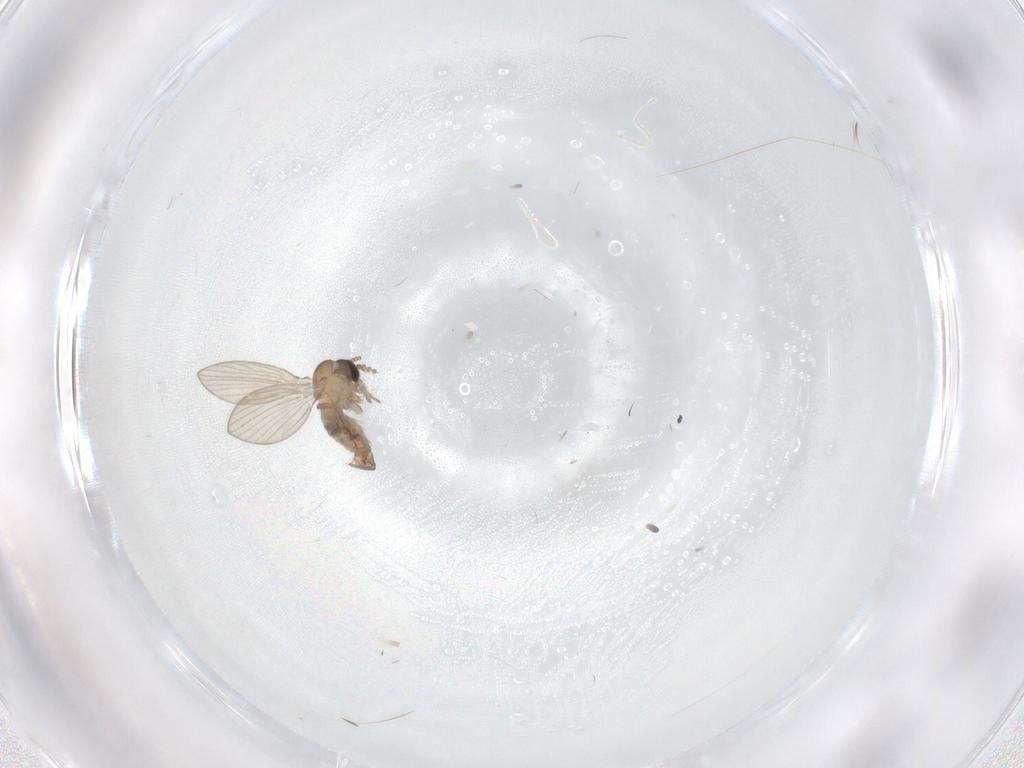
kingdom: Animalia
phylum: Arthropoda
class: Insecta
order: Diptera
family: Psychodidae
